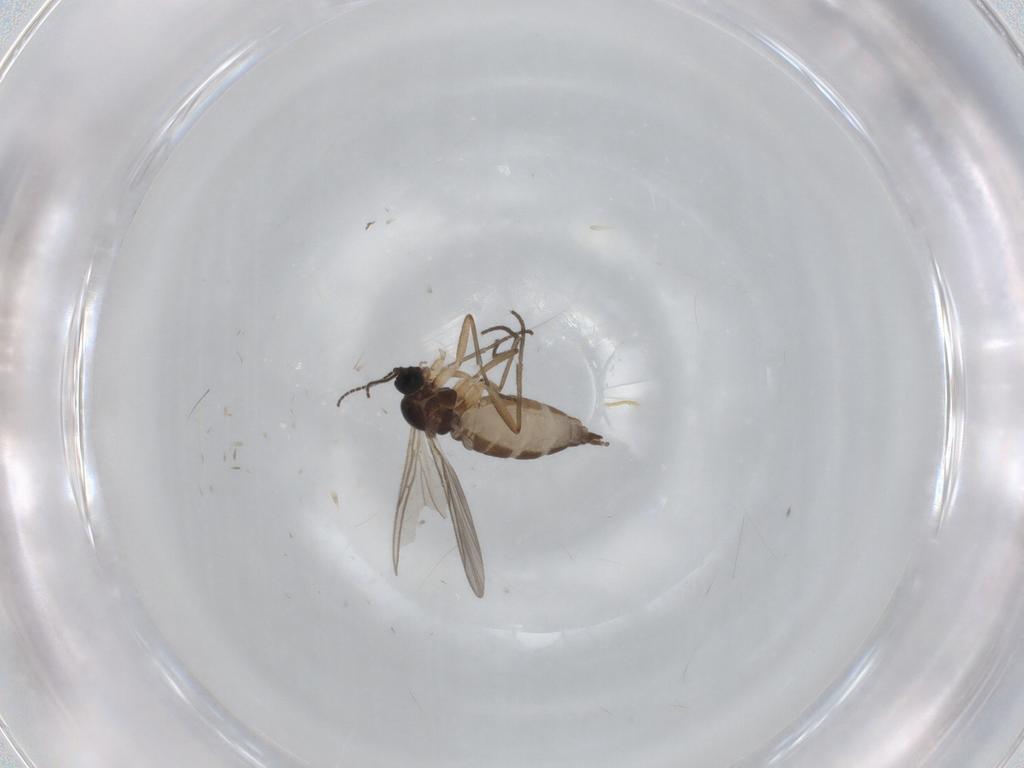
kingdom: Animalia
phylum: Arthropoda
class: Insecta
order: Diptera
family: Sciaridae
